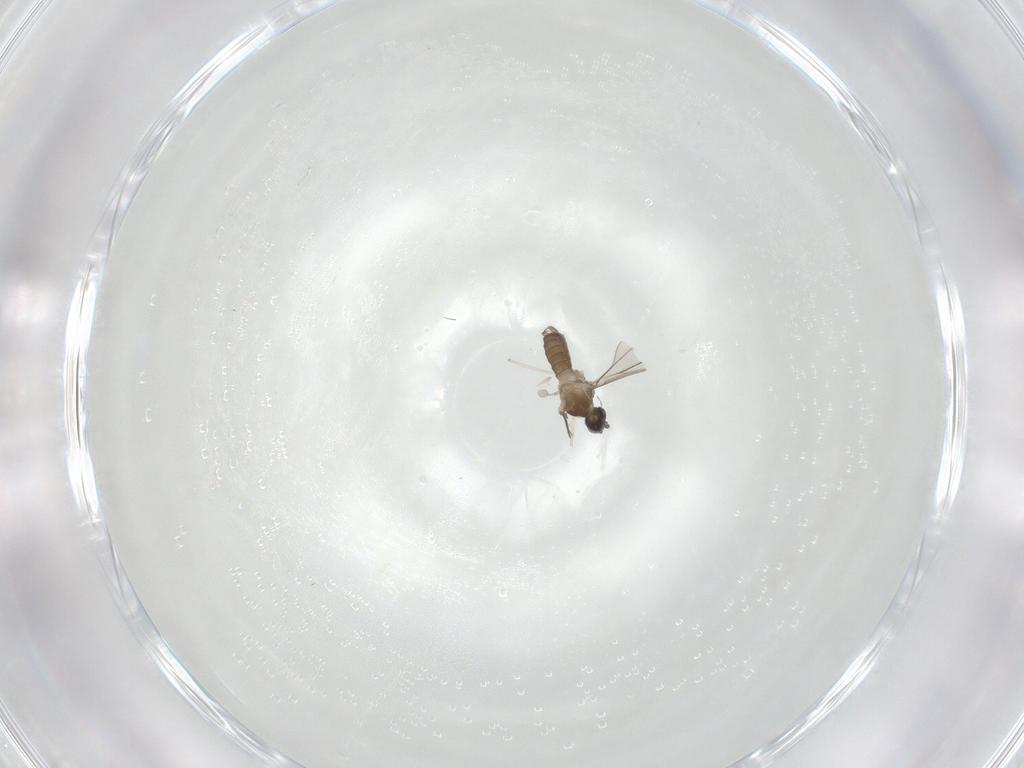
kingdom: Animalia
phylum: Arthropoda
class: Insecta
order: Diptera
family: Cecidomyiidae
